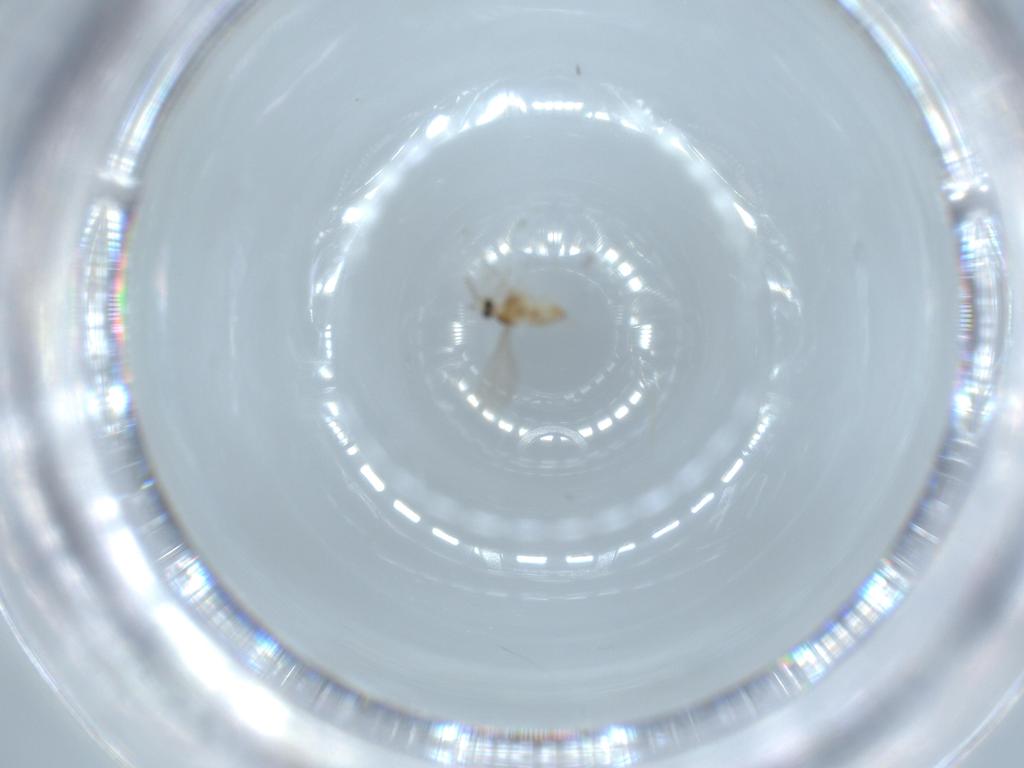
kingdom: Animalia
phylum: Arthropoda
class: Insecta
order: Diptera
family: Cecidomyiidae
